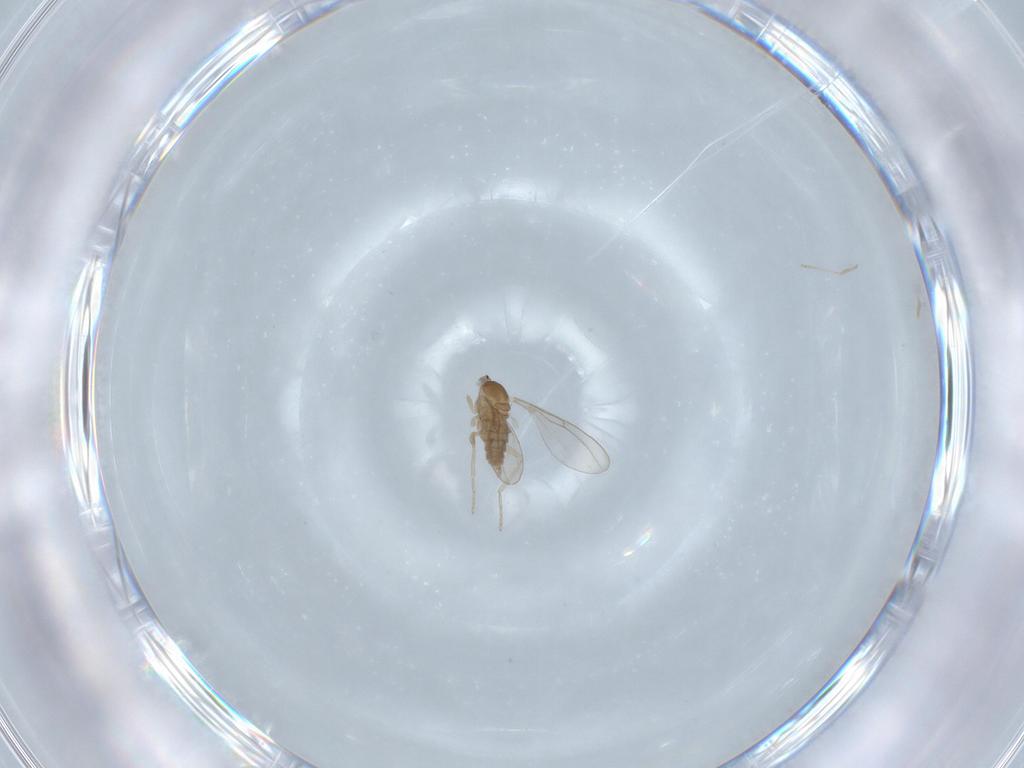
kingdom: Animalia
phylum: Arthropoda
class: Insecta
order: Diptera
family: Cecidomyiidae
